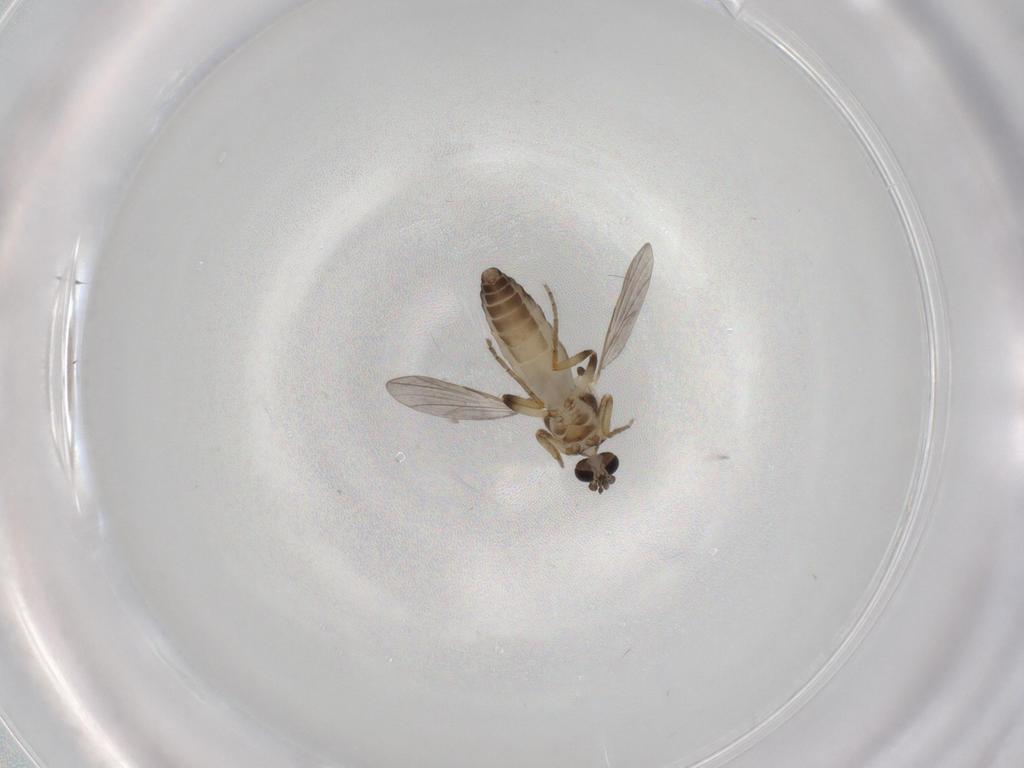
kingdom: Animalia
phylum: Arthropoda
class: Insecta
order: Diptera
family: Ceratopogonidae
